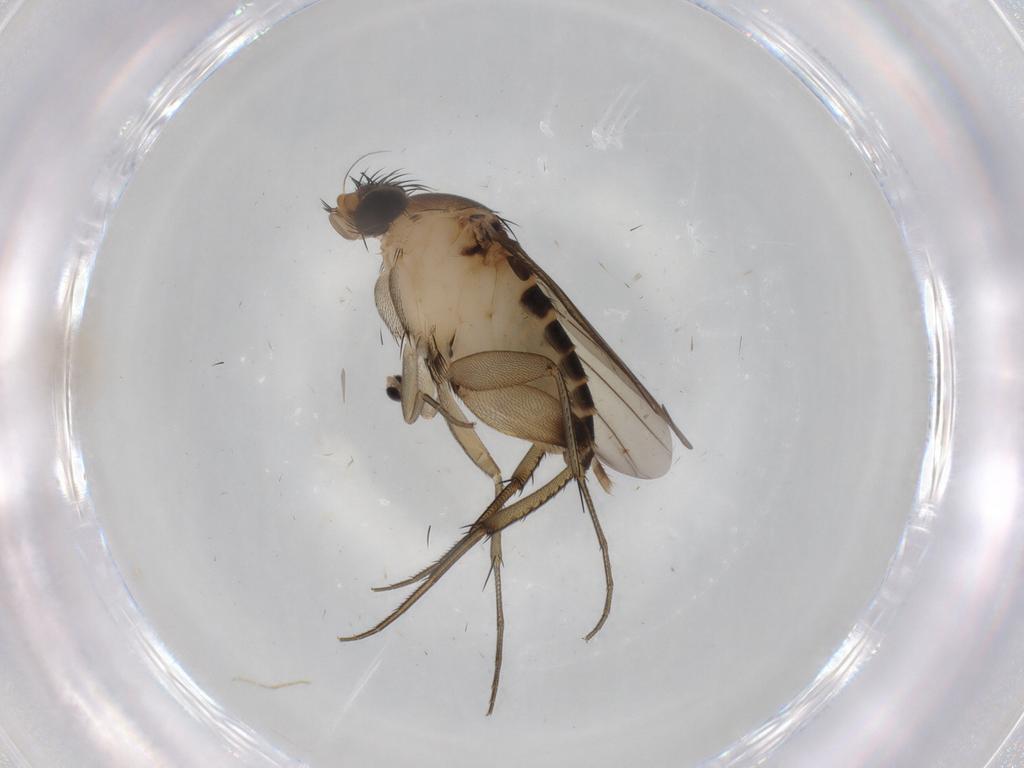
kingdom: Animalia
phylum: Arthropoda
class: Insecta
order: Diptera
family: Cecidomyiidae
